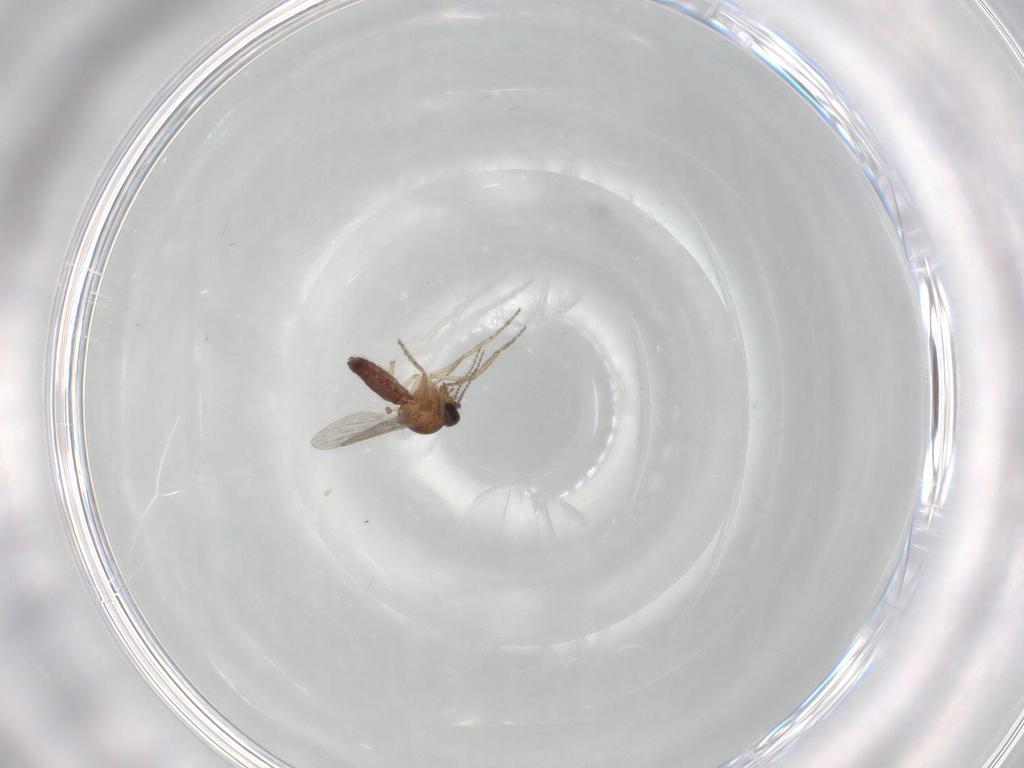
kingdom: Animalia
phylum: Arthropoda
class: Insecta
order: Diptera
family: Ceratopogonidae
